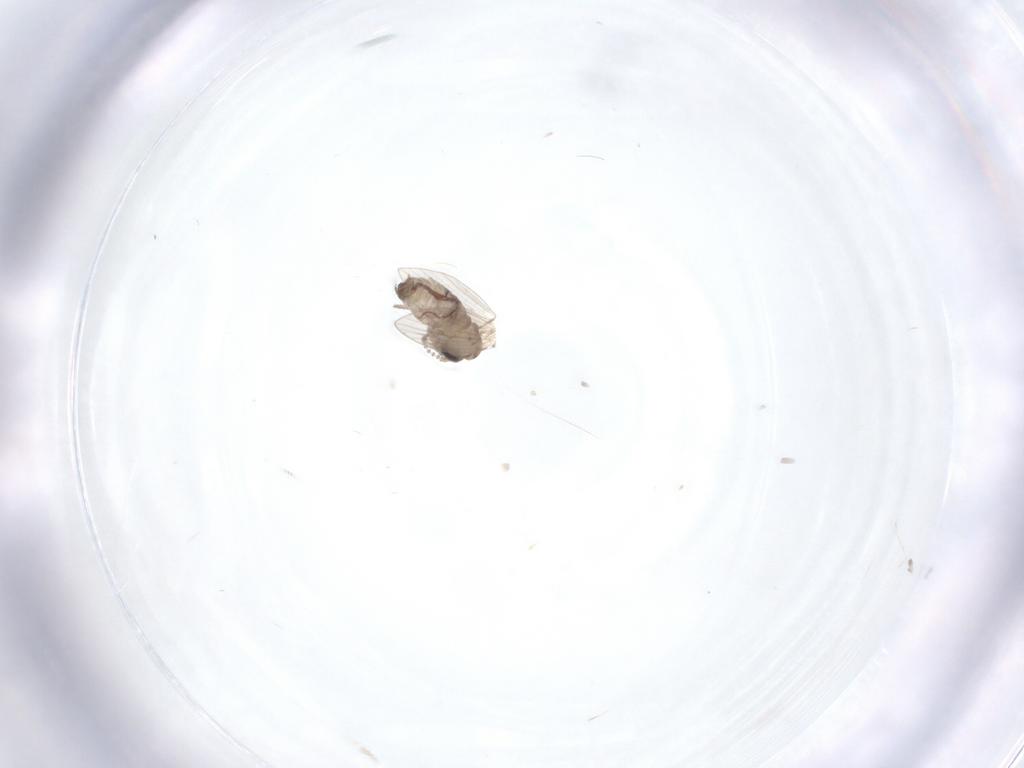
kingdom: Animalia
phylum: Arthropoda
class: Insecta
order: Diptera
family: Psychodidae
